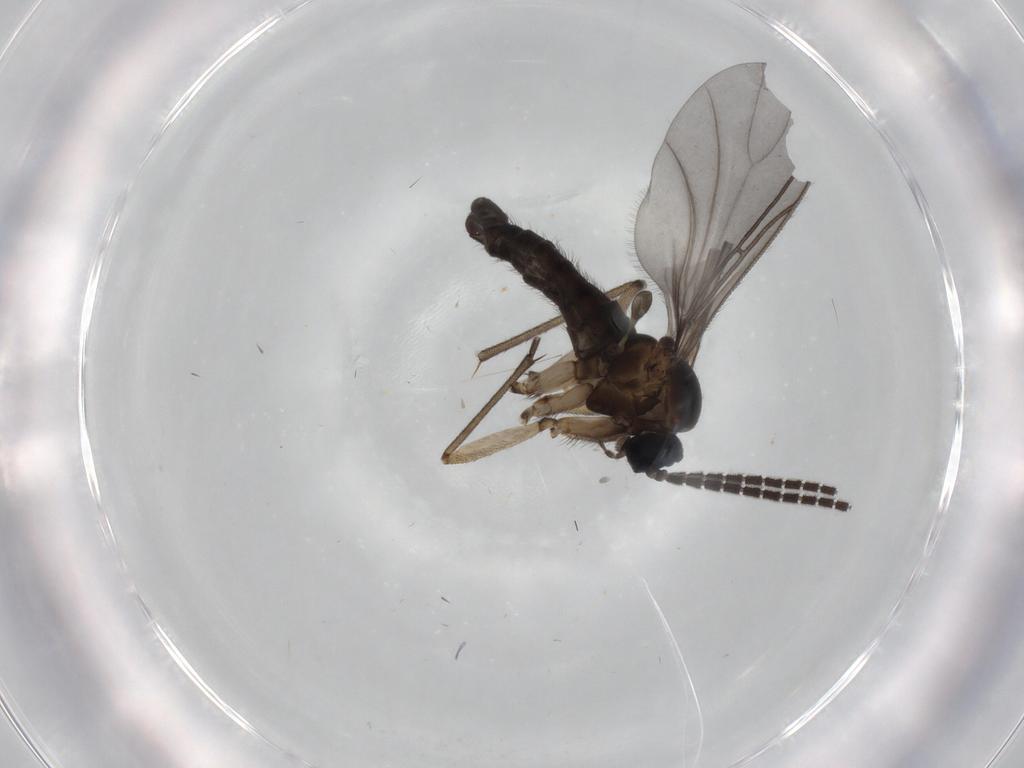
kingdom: Animalia
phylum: Arthropoda
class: Insecta
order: Diptera
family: Sciaridae
